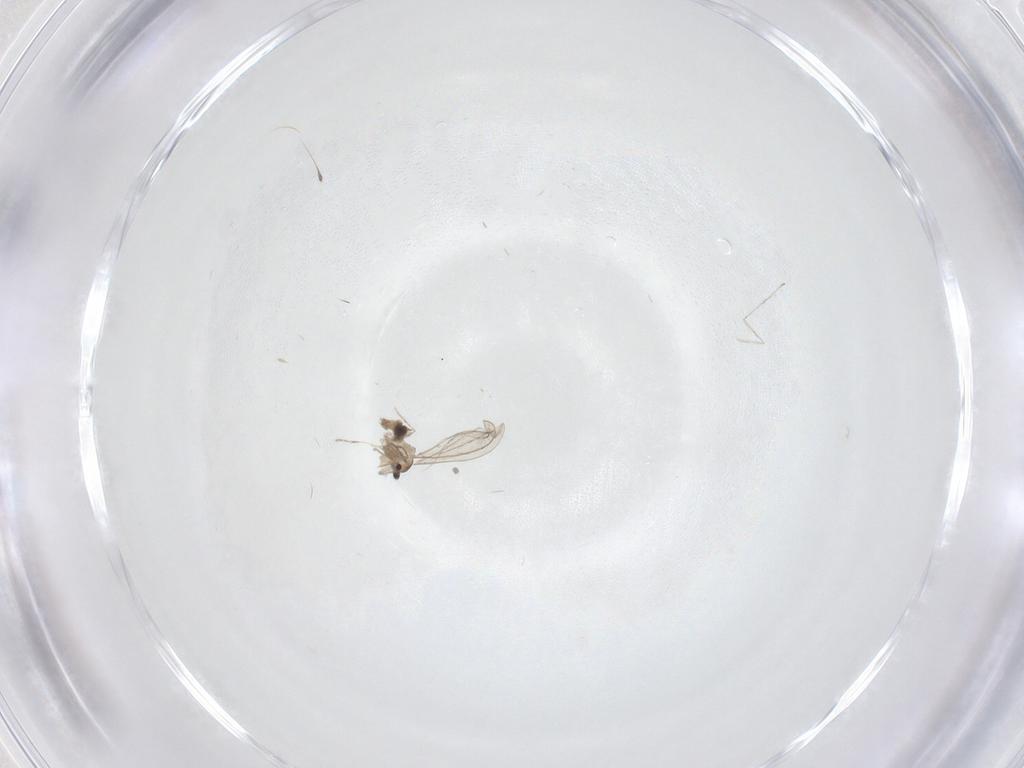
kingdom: Animalia
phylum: Arthropoda
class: Insecta
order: Diptera
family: Cecidomyiidae
